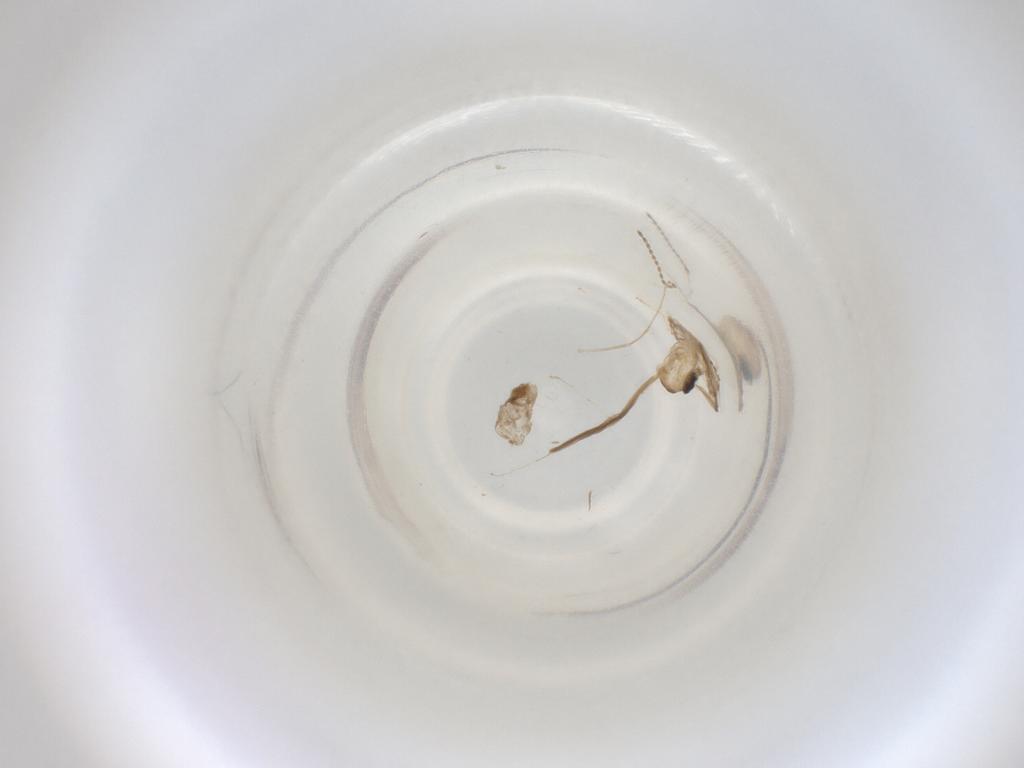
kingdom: Animalia
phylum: Arthropoda
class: Insecta
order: Diptera
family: Cecidomyiidae
